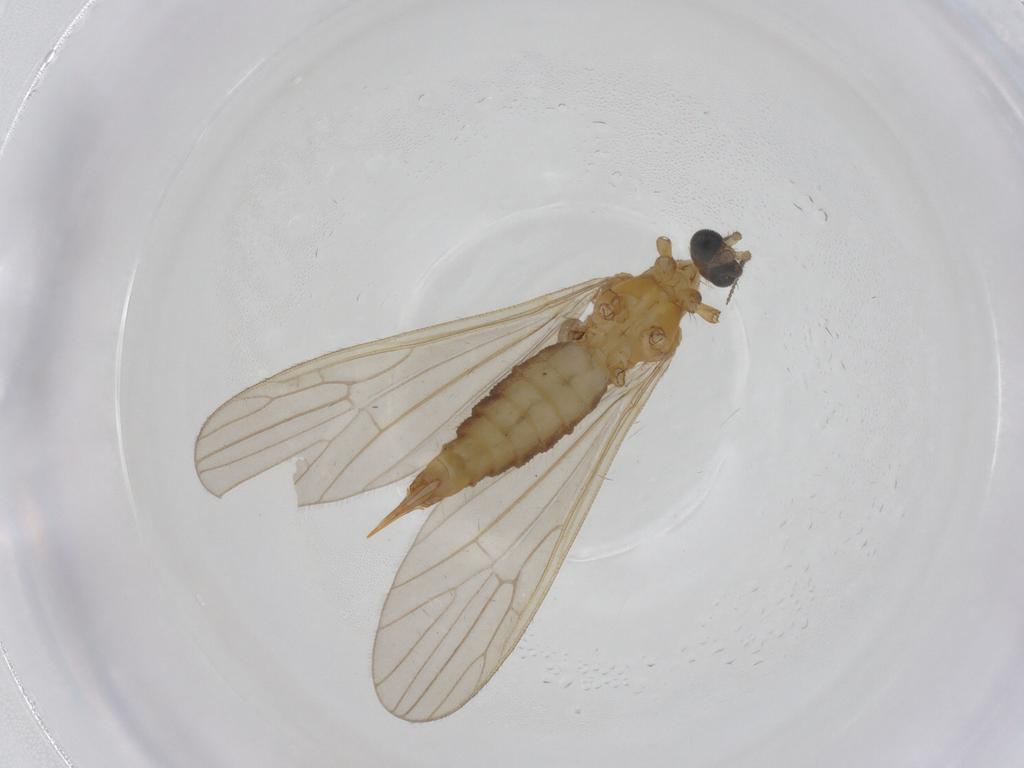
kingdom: Animalia
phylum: Arthropoda
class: Insecta
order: Diptera
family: Limoniidae
